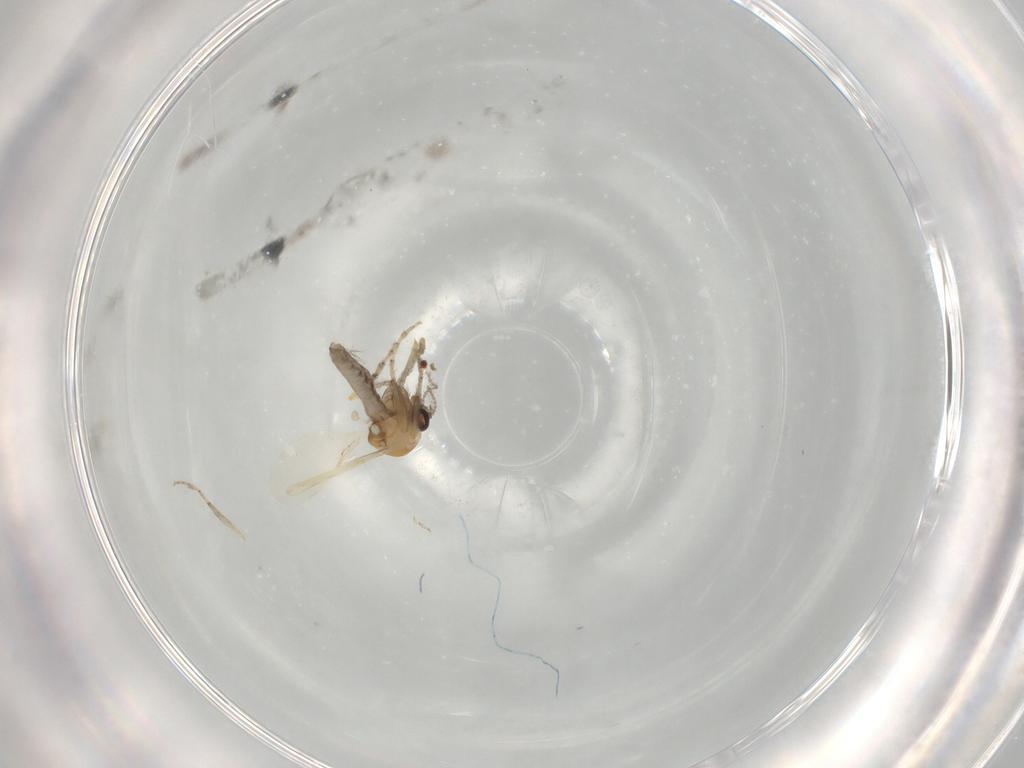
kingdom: Animalia
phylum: Arthropoda
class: Insecta
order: Diptera
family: Ceratopogonidae
